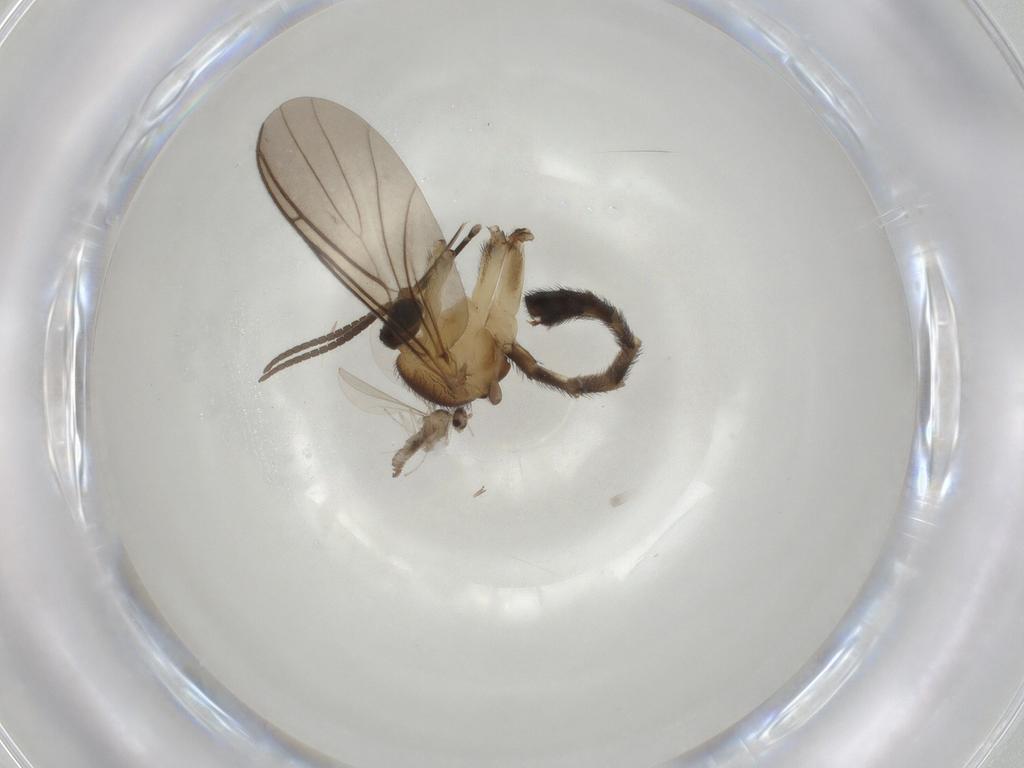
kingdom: Animalia
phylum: Arthropoda
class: Insecta
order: Diptera
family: Keroplatidae
